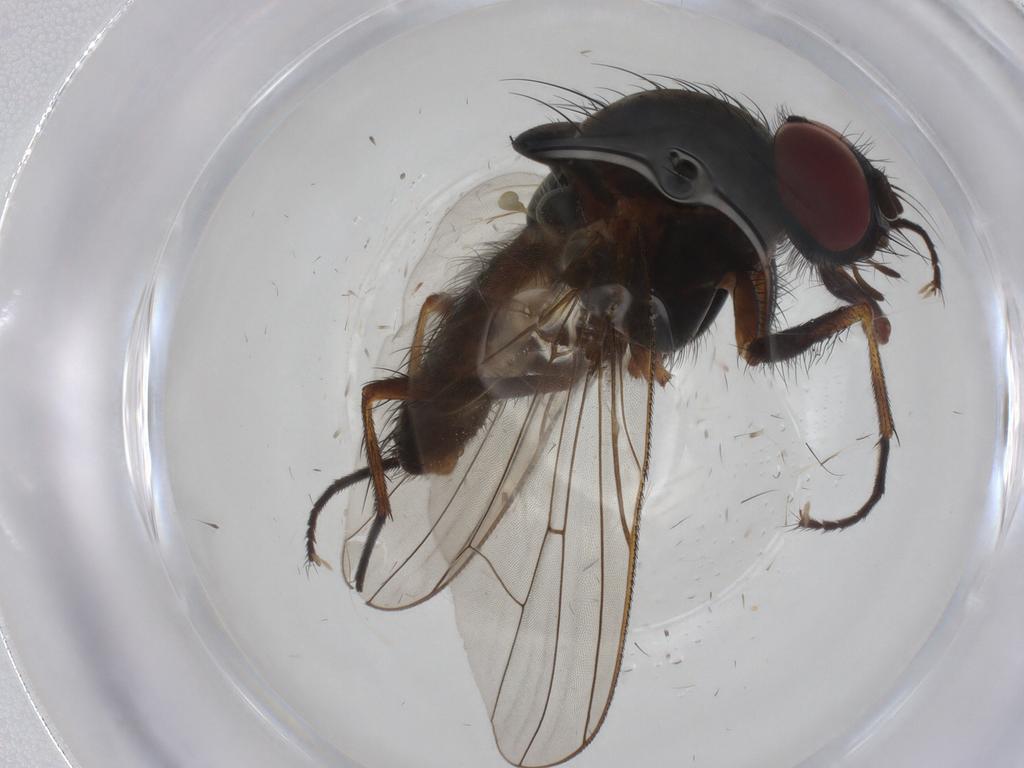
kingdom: Animalia
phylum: Arthropoda
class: Insecta
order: Diptera
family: Anthomyiidae
